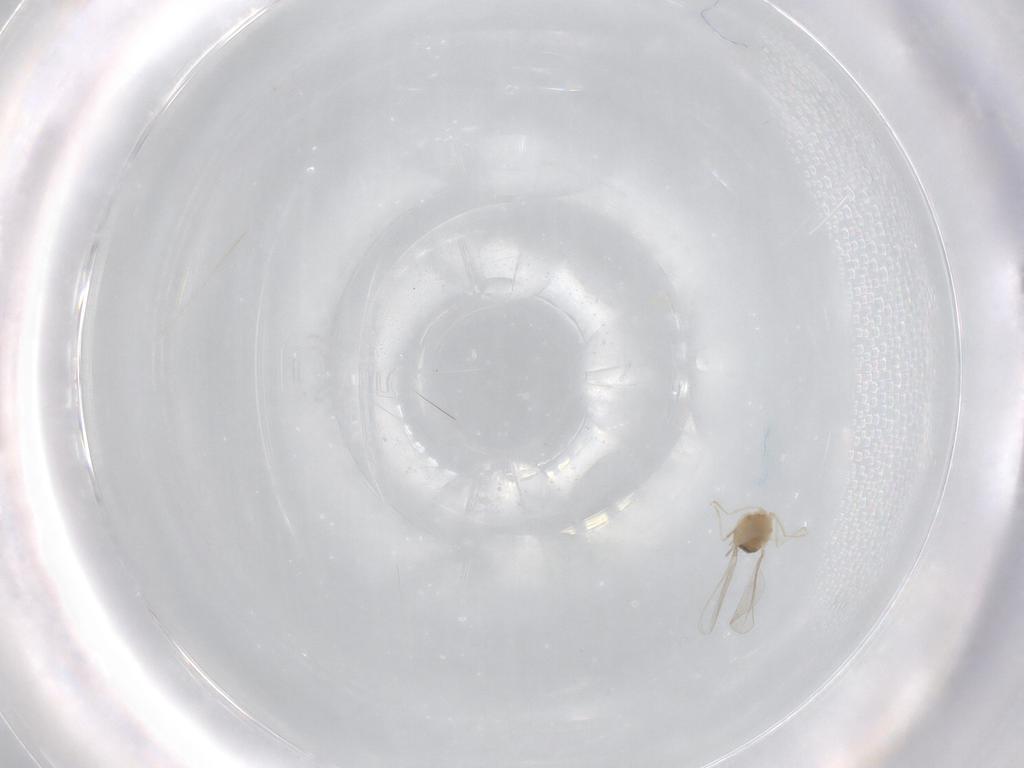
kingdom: Animalia
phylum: Arthropoda
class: Insecta
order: Diptera
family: Cecidomyiidae
